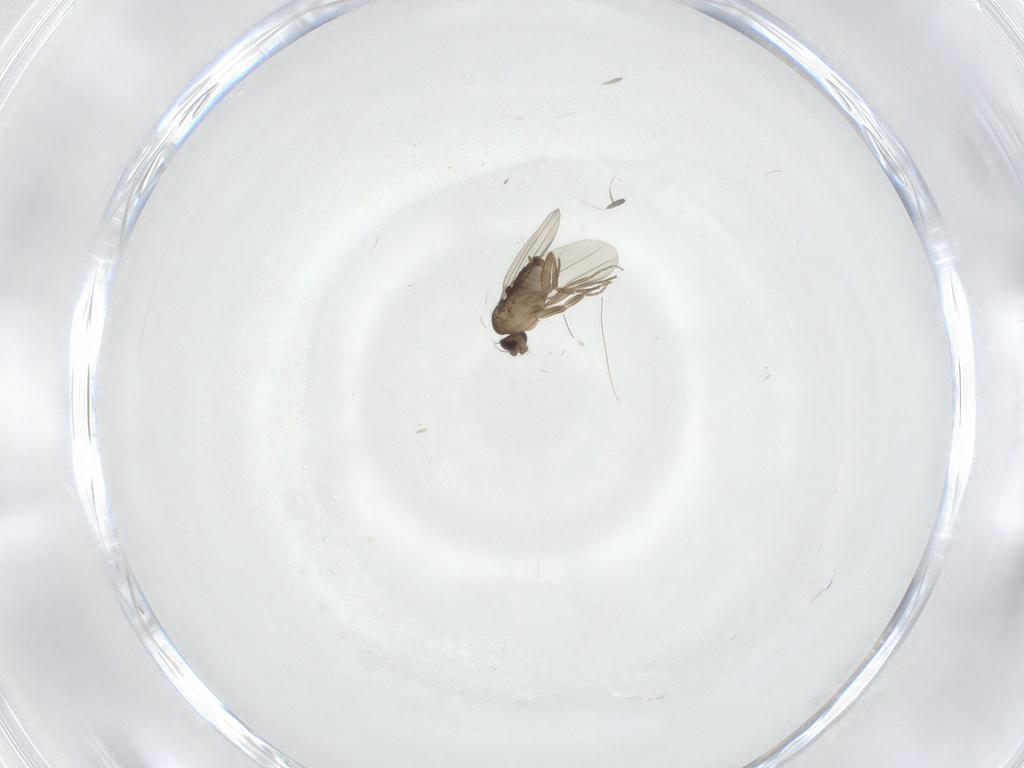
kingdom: Animalia
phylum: Arthropoda
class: Insecta
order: Diptera
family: Phoridae
